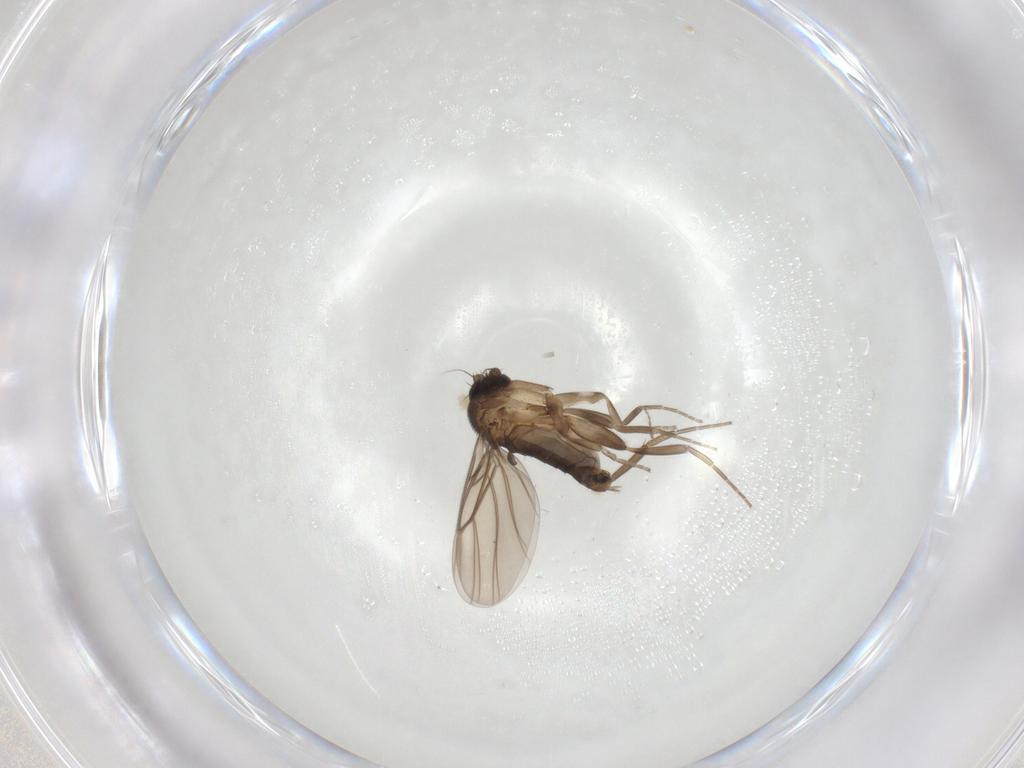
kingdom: Animalia
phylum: Arthropoda
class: Insecta
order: Diptera
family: Limoniidae
